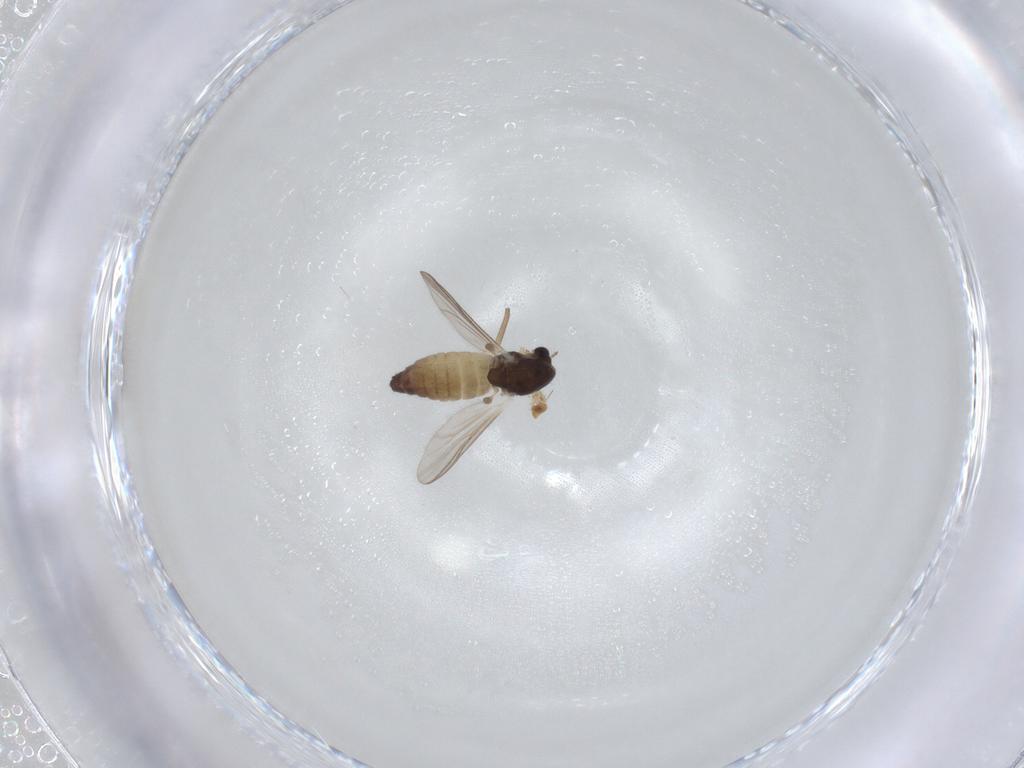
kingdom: Animalia
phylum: Arthropoda
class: Insecta
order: Diptera
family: Chironomidae
